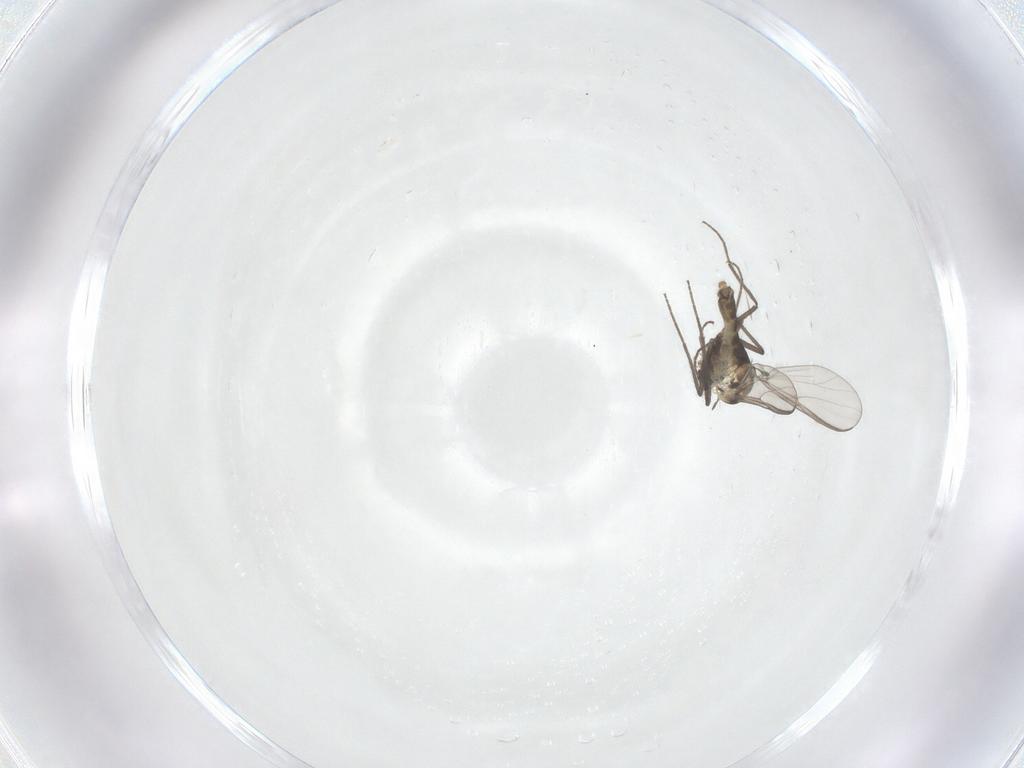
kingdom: Animalia
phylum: Arthropoda
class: Insecta
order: Diptera
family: Chironomidae
